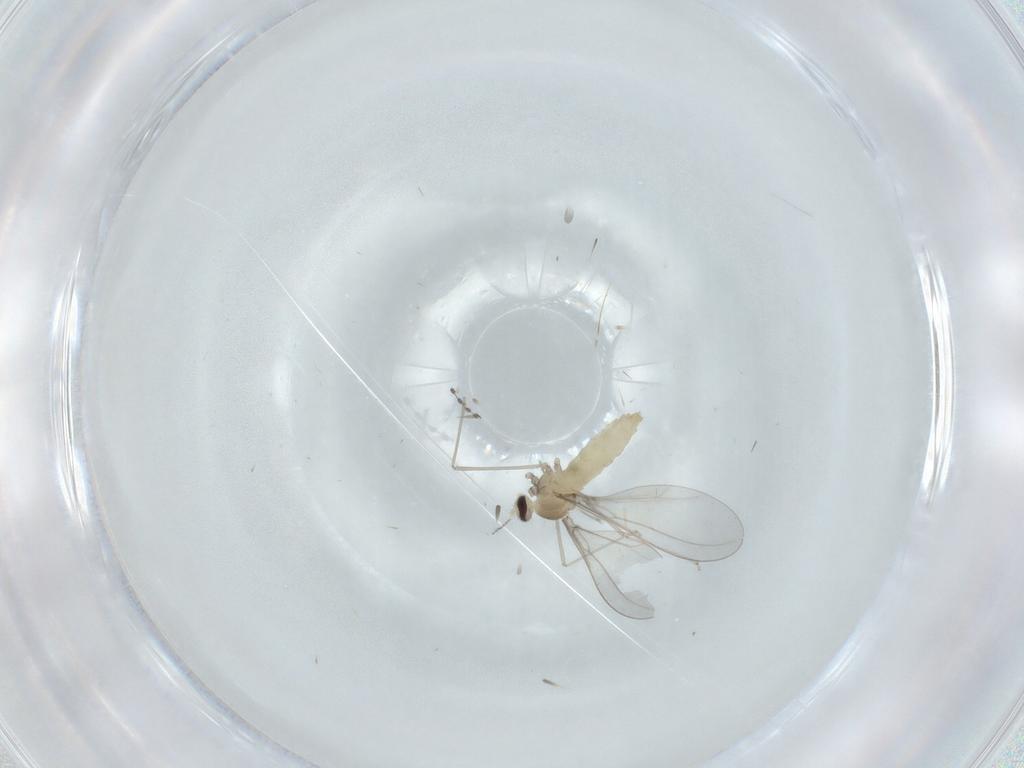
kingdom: Animalia
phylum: Arthropoda
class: Insecta
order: Diptera
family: Cecidomyiidae
